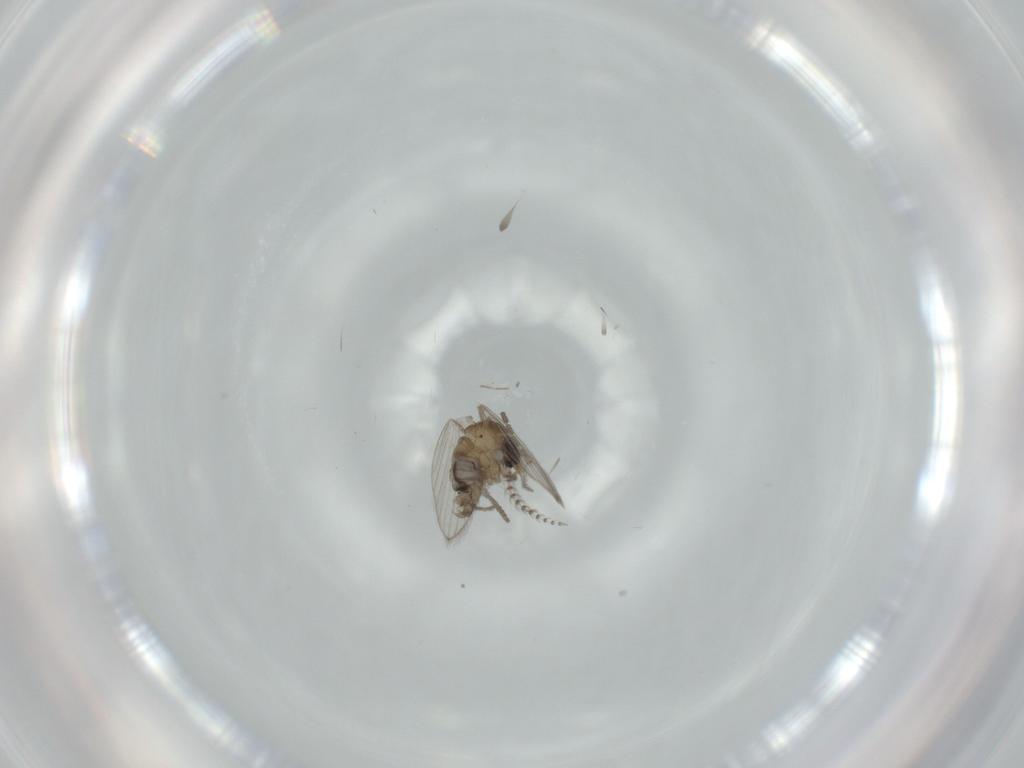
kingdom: Animalia
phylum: Arthropoda
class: Insecta
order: Diptera
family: Psychodidae
